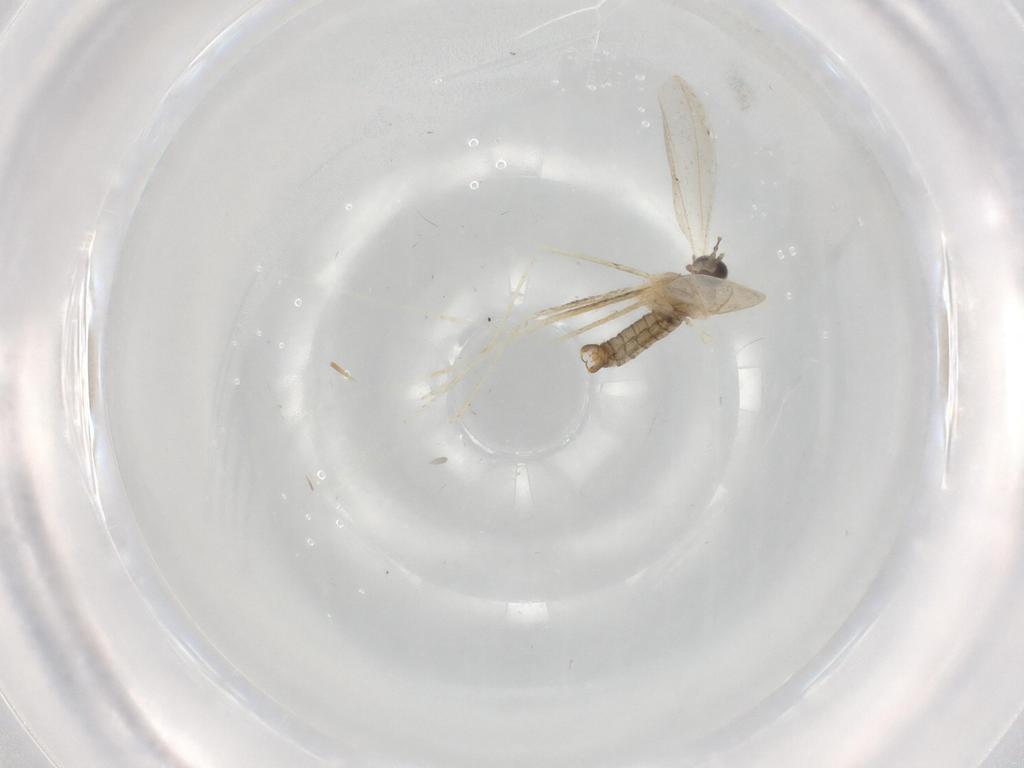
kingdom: Animalia
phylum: Arthropoda
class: Insecta
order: Diptera
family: Cecidomyiidae
